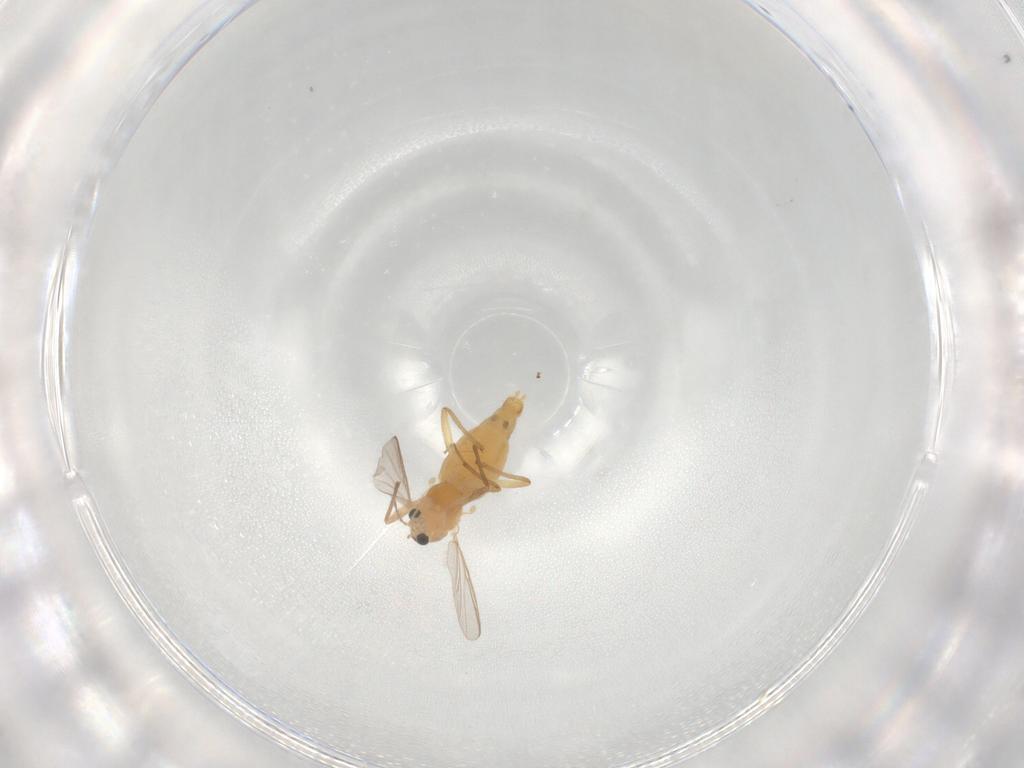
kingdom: Animalia
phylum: Arthropoda
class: Insecta
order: Diptera
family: Chironomidae
